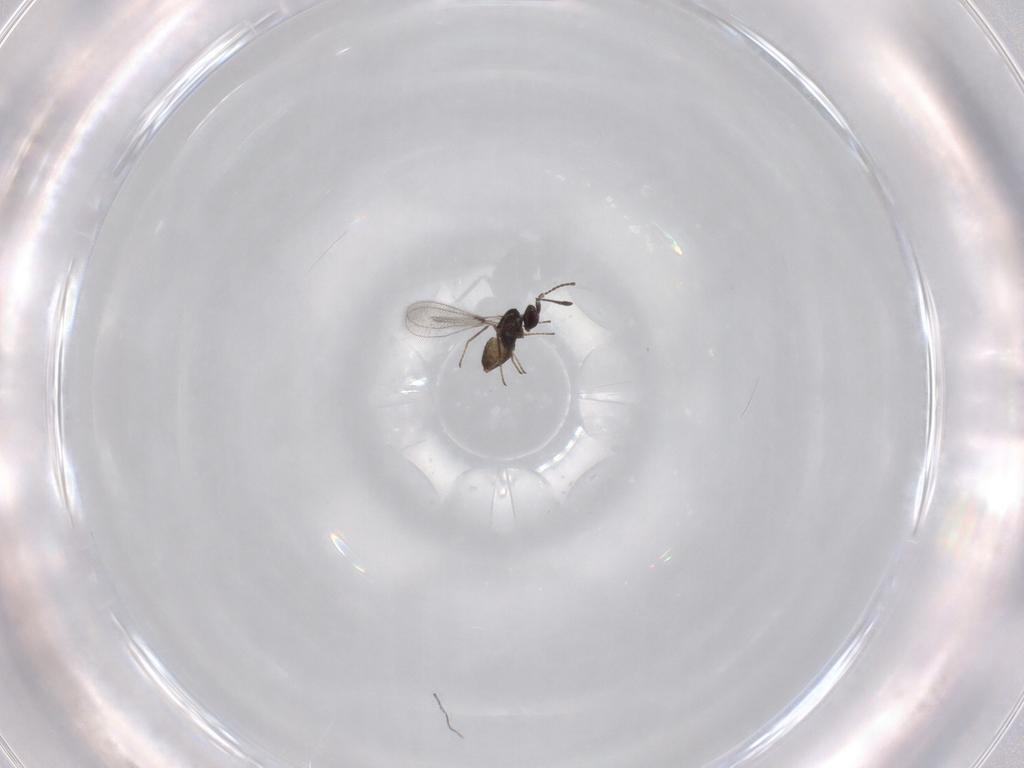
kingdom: Animalia
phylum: Arthropoda
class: Insecta
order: Hymenoptera
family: Mymaridae
